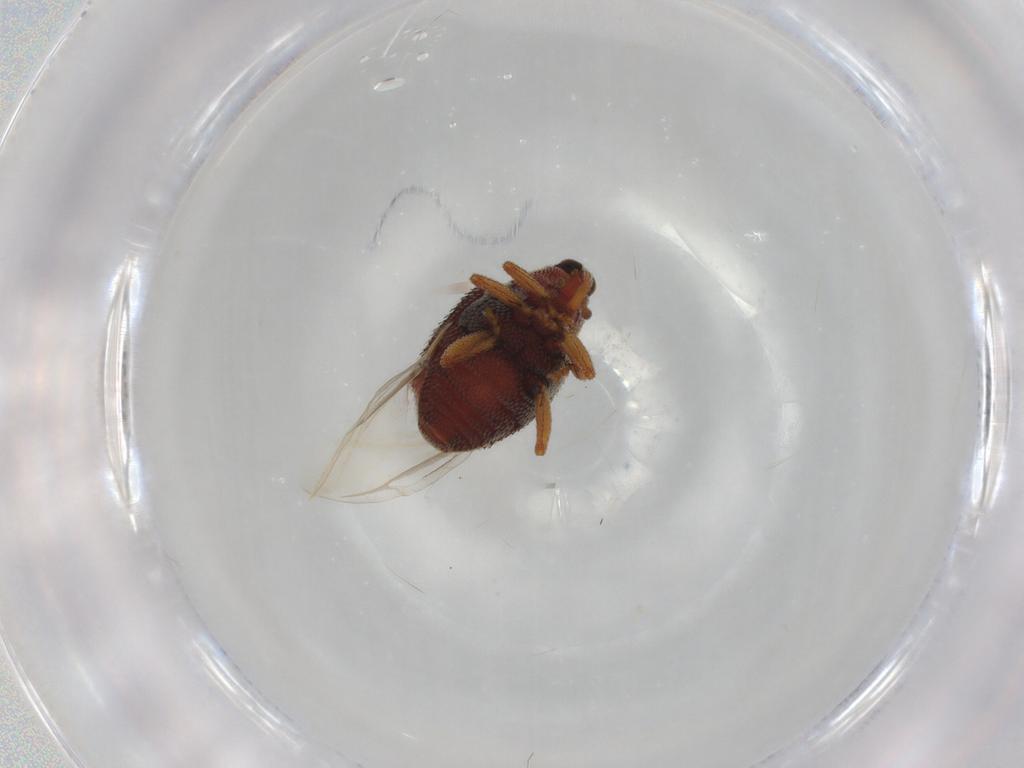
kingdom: Animalia
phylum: Arthropoda
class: Insecta
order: Coleoptera
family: Curculionidae
